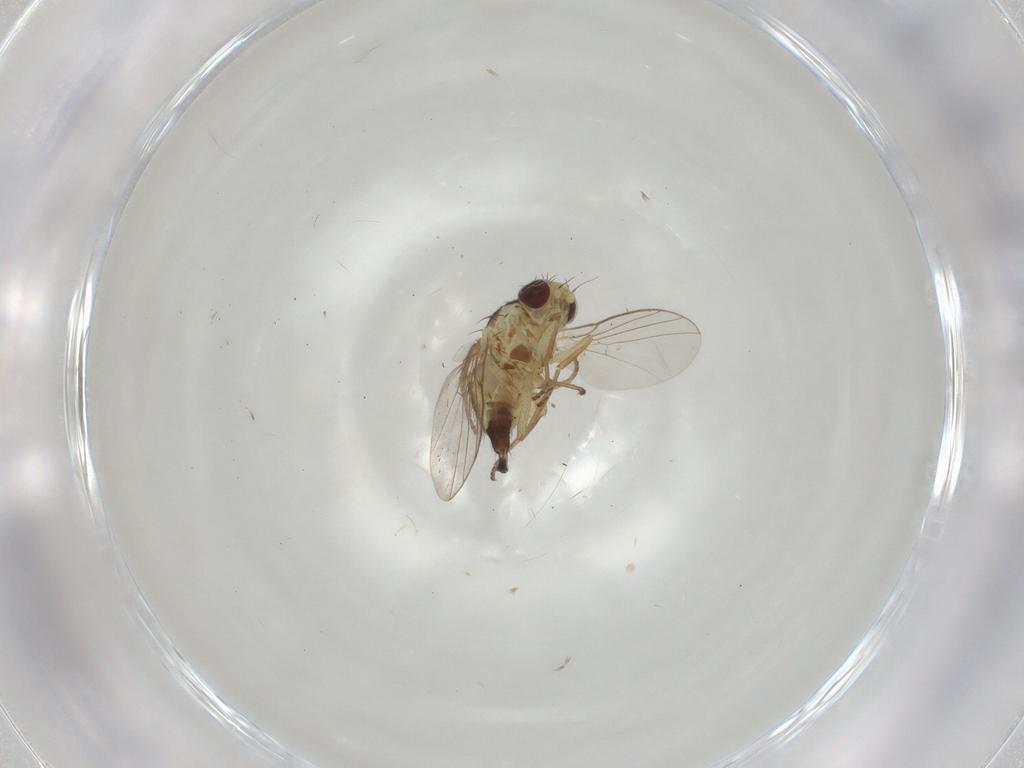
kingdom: Animalia
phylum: Arthropoda
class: Insecta
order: Diptera
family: Agromyzidae
